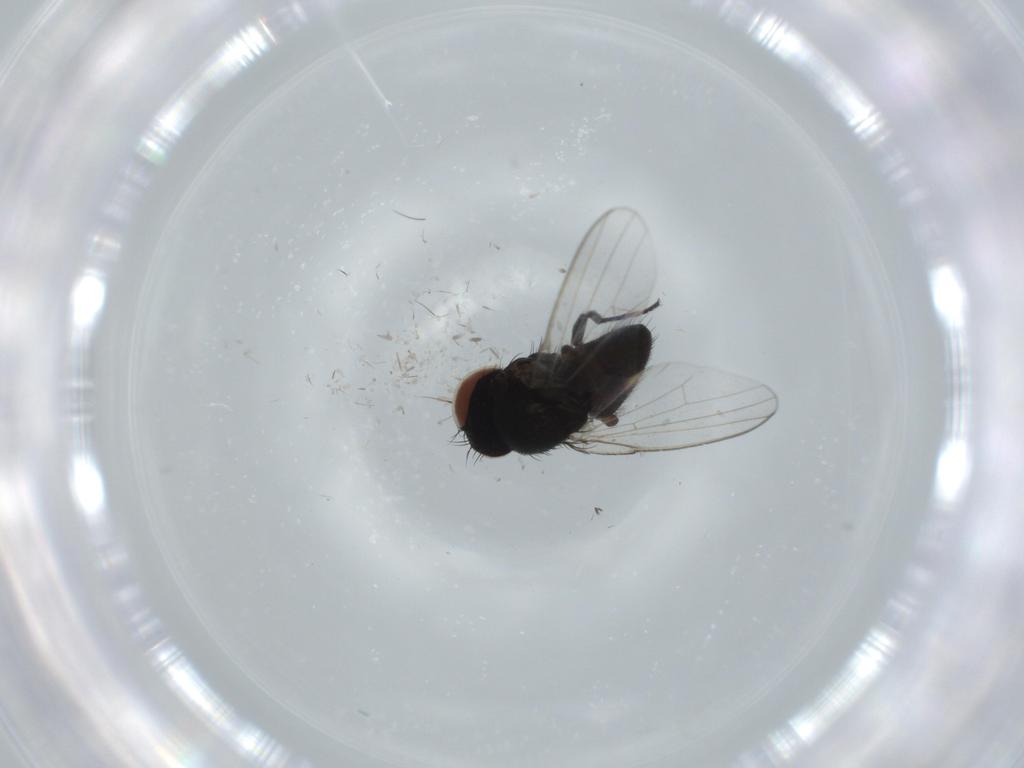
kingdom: Animalia
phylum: Arthropoda
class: Insecta
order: Diptera
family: Milichiidae
